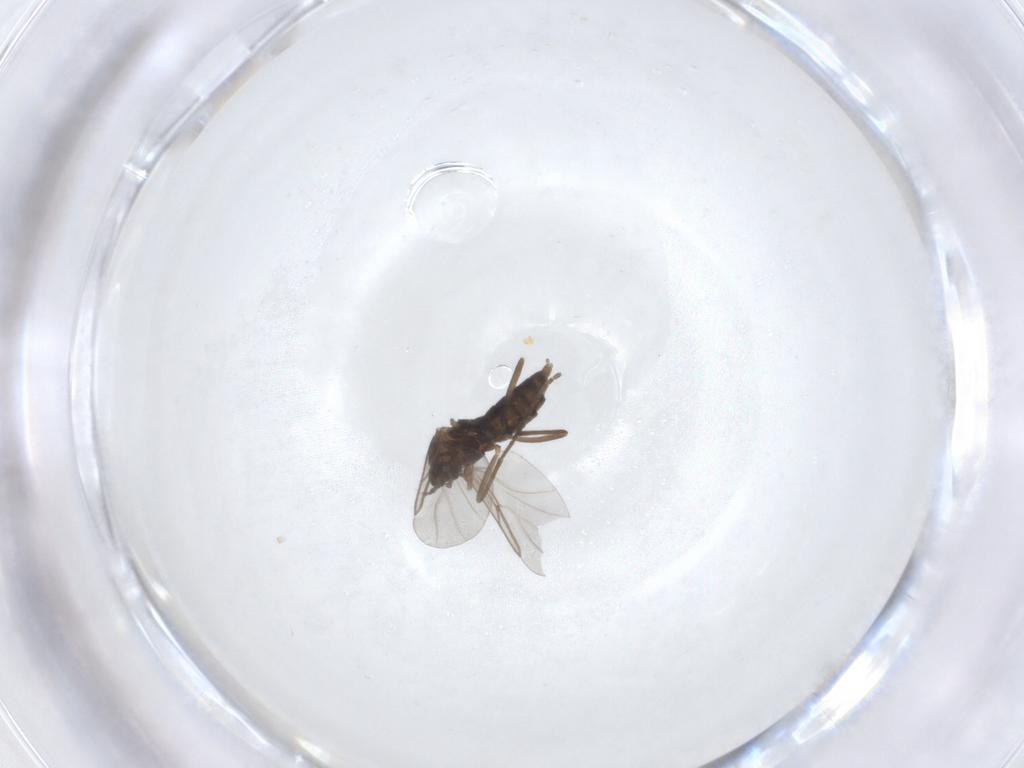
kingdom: Animalia
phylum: Arthropoda
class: Insecta
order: Diptera
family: Cecidomyiidae
